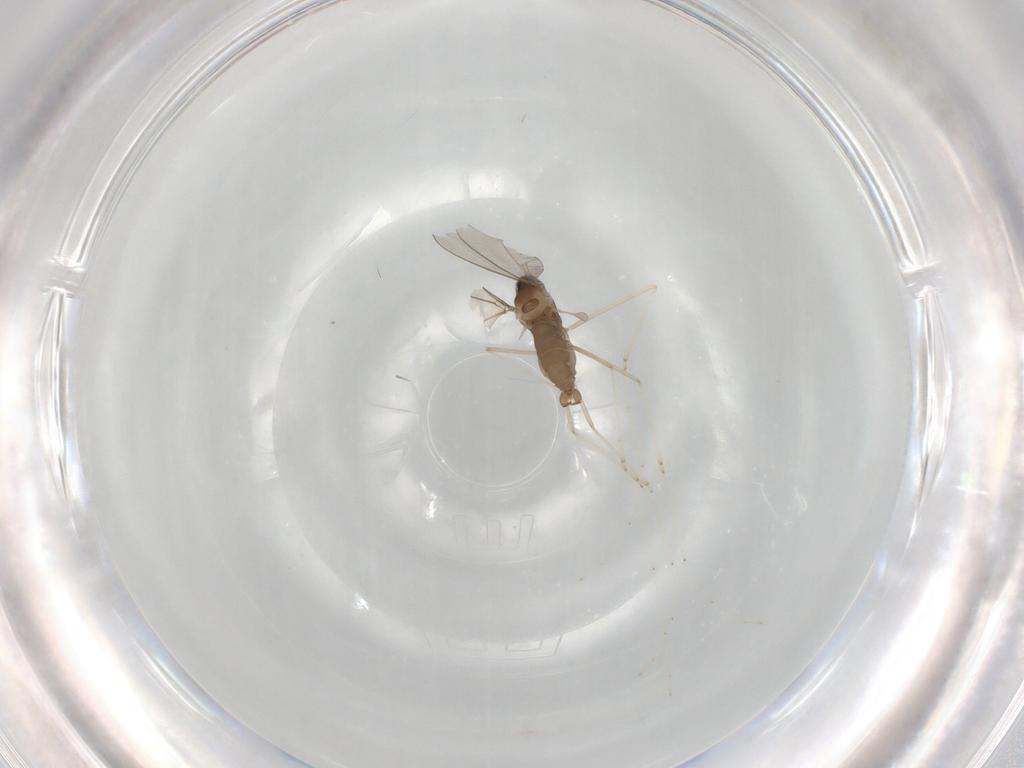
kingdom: Animalia
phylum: Arthropoda
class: Insecta
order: Diptera
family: Cecidomyiidae
